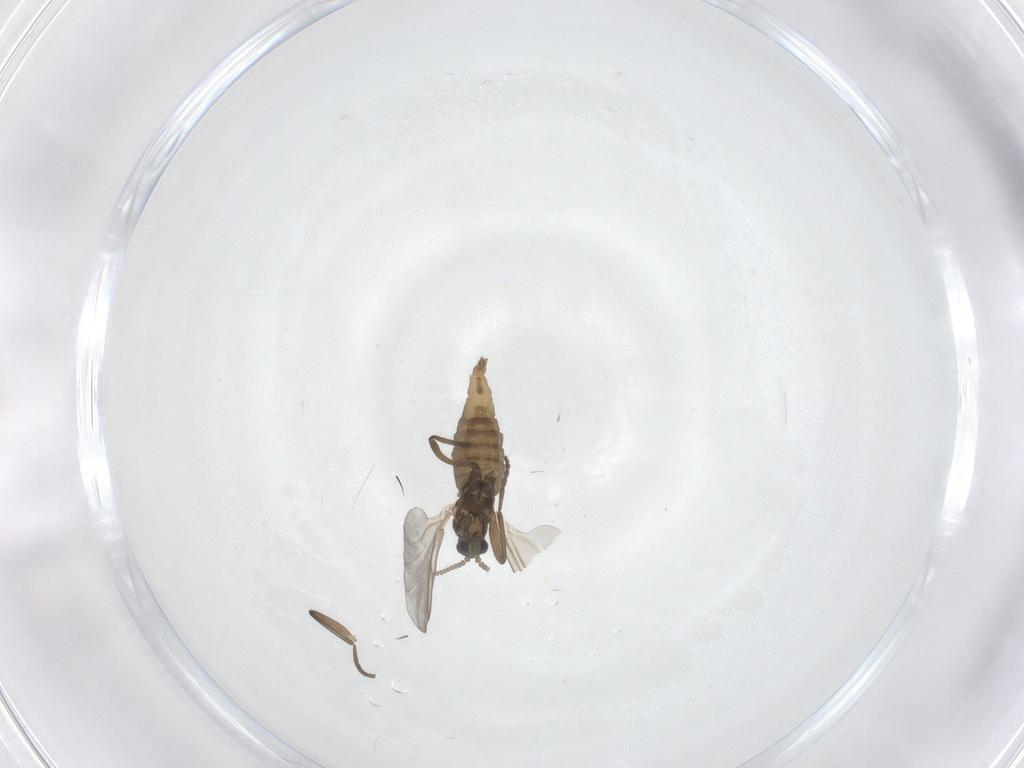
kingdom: Animalia
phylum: Arthropoda
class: Insecta
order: Diptera
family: Cecidomyiidae
